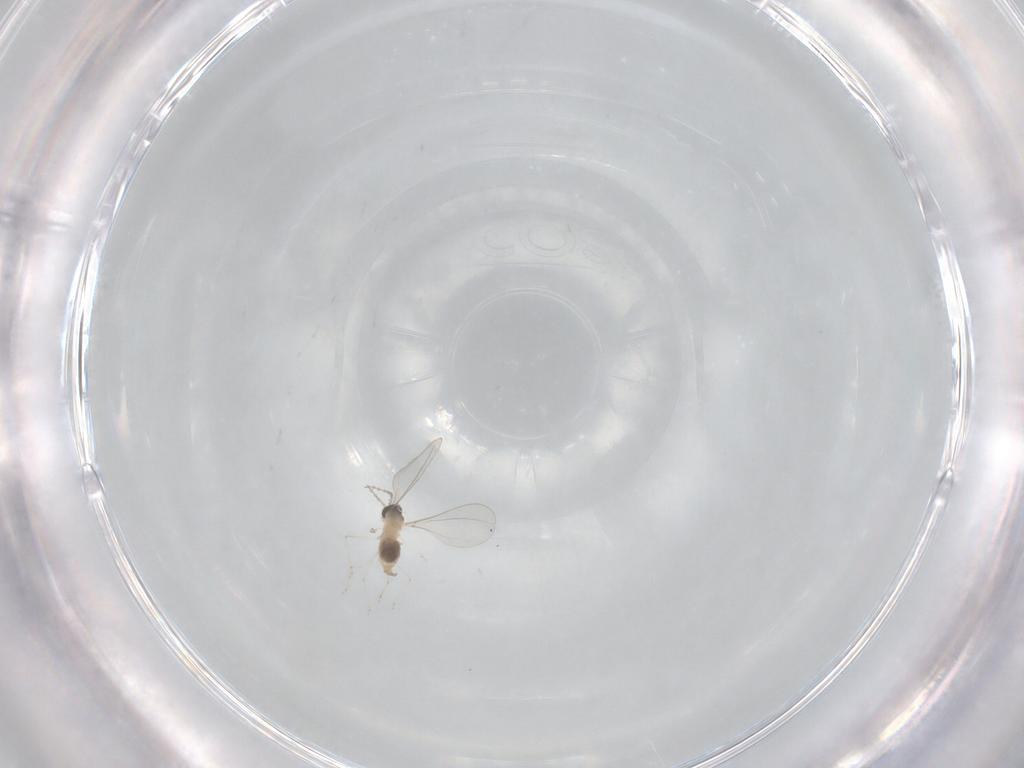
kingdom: Animalia
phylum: Arthropoda
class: Insecta
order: Diptera
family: Cecidomyiidae
